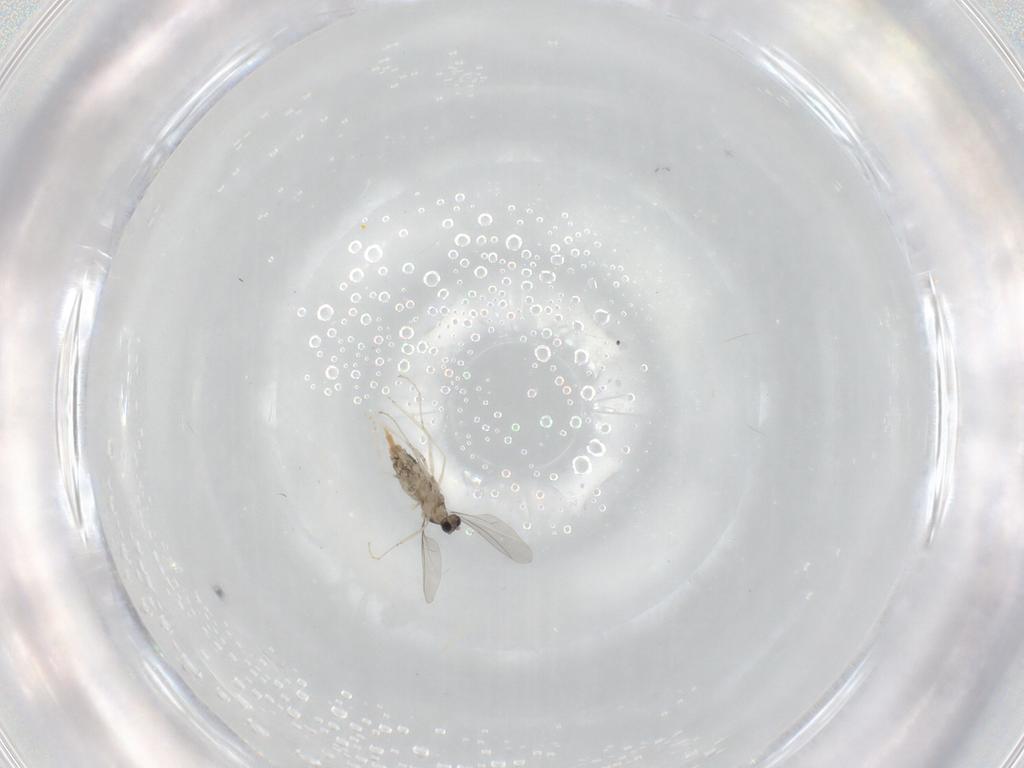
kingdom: Animalia
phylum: Arthropoda
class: Insecta
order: Diptera
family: Cecidomyiidae
